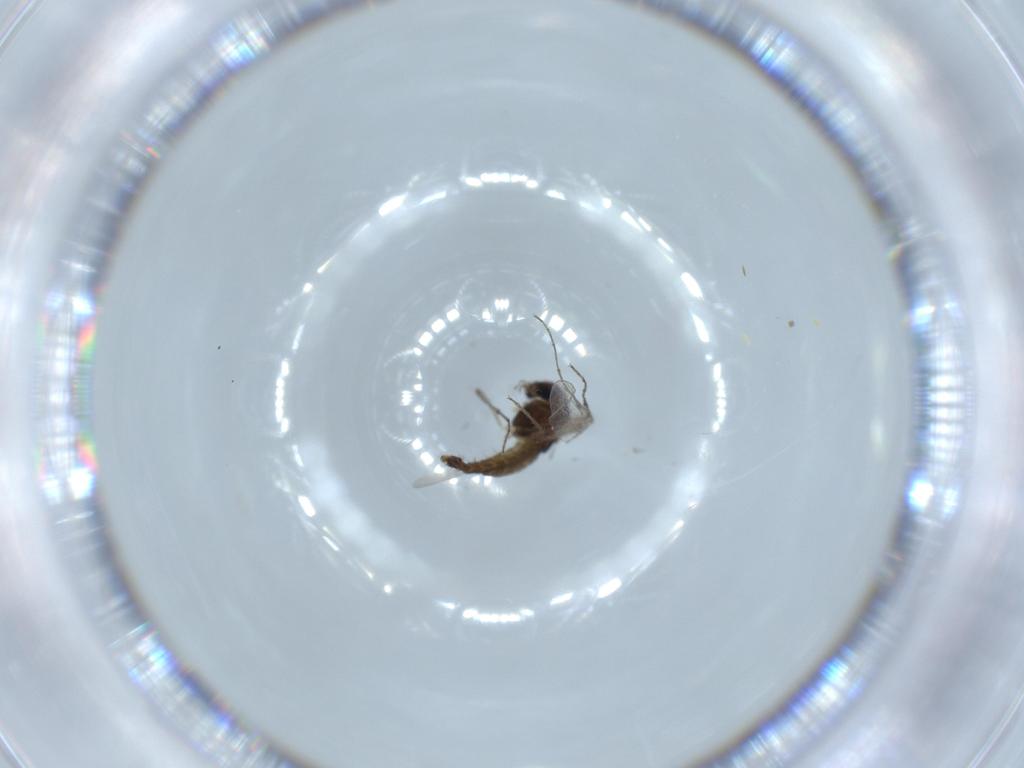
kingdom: Animalia
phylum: Arthropoda
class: Insecta
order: Diptera
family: Chironomidae
